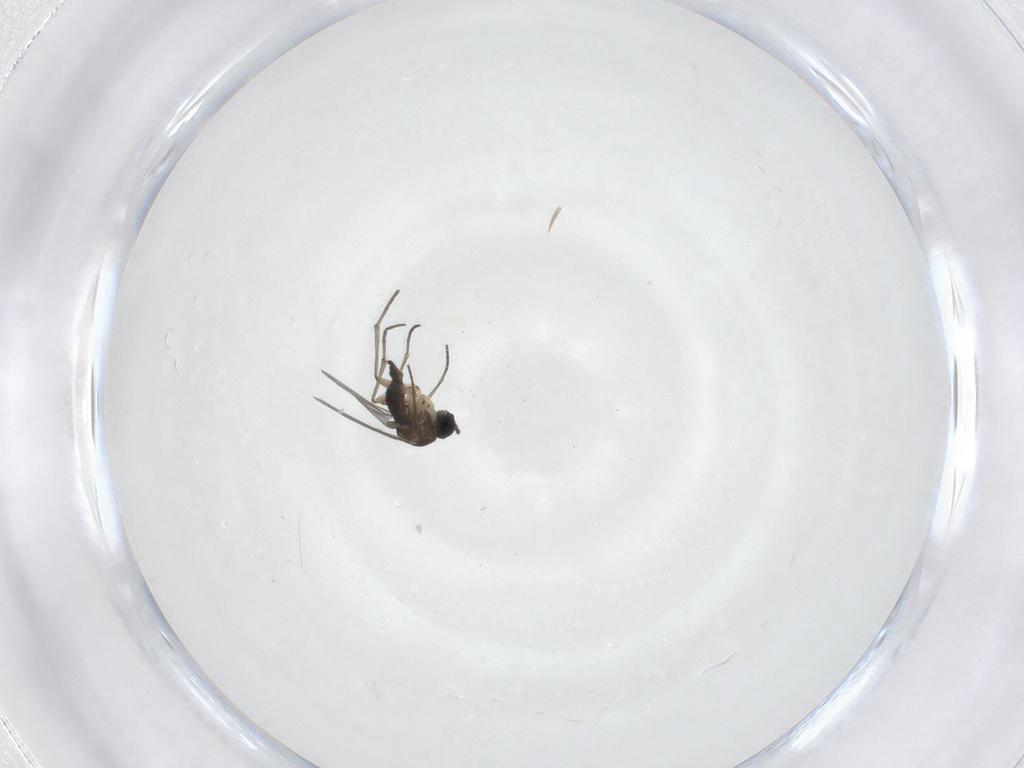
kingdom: Animalia
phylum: Arthropoda
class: Insecta
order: Diptera
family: Sciaridae
